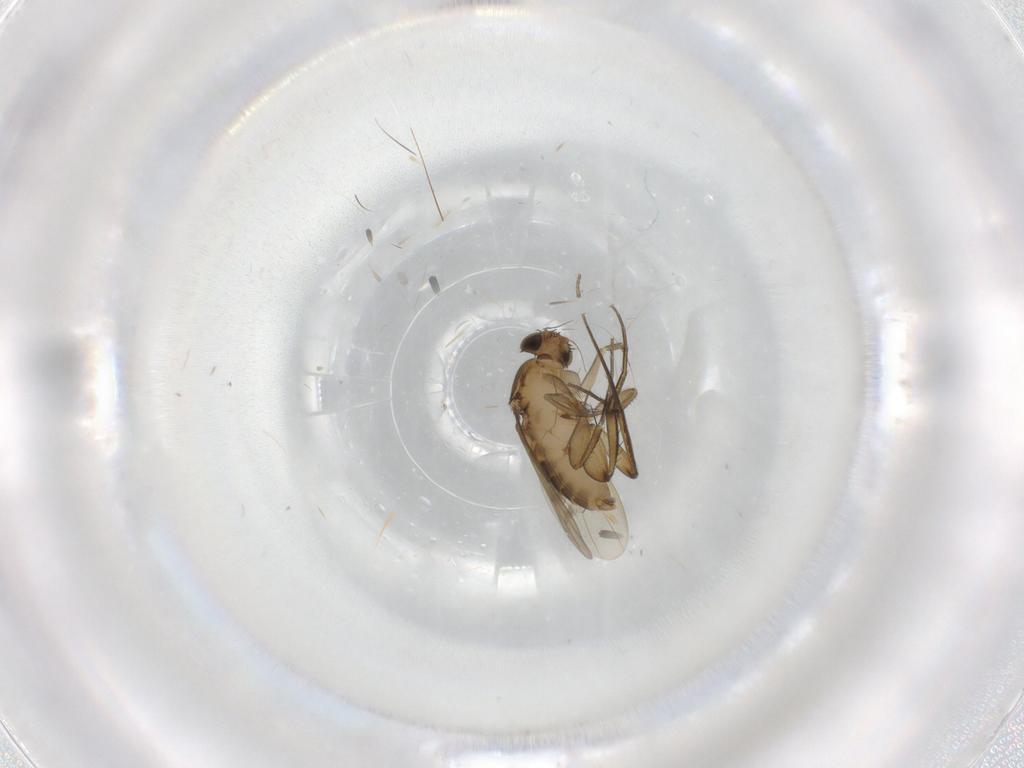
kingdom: Animalia
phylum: Arthropoda
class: Insecta
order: Diptera
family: Phoridae
